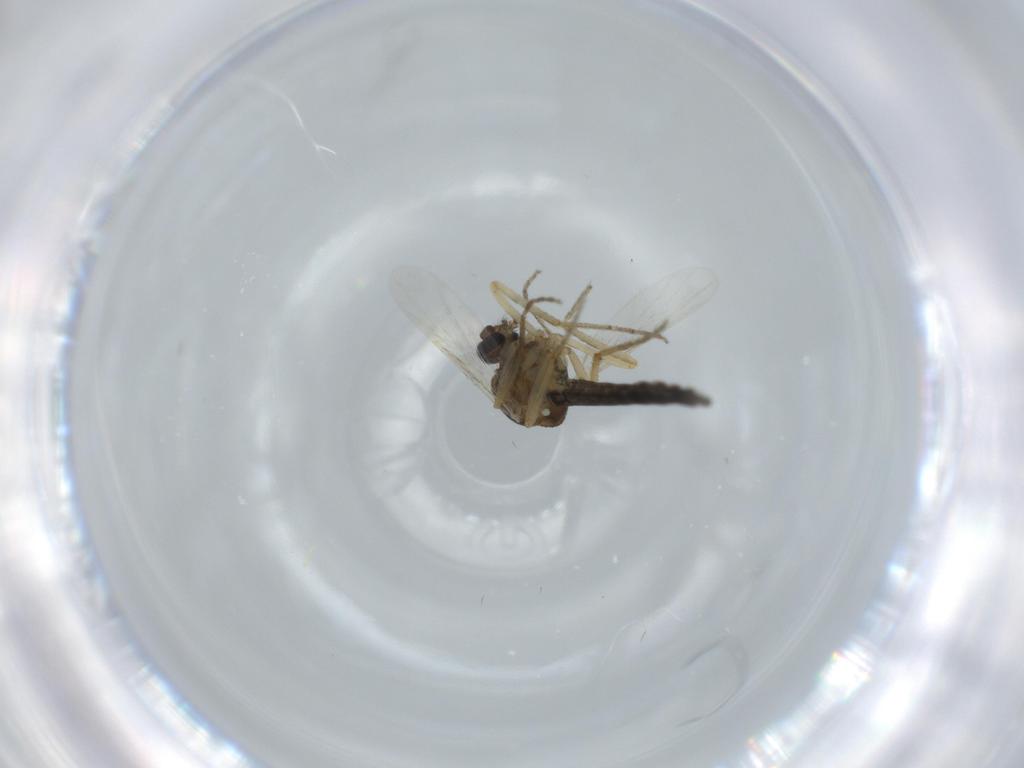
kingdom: Animalia
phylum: Arthropoda
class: Insecta
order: Diptera
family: Ceratopogonidae
